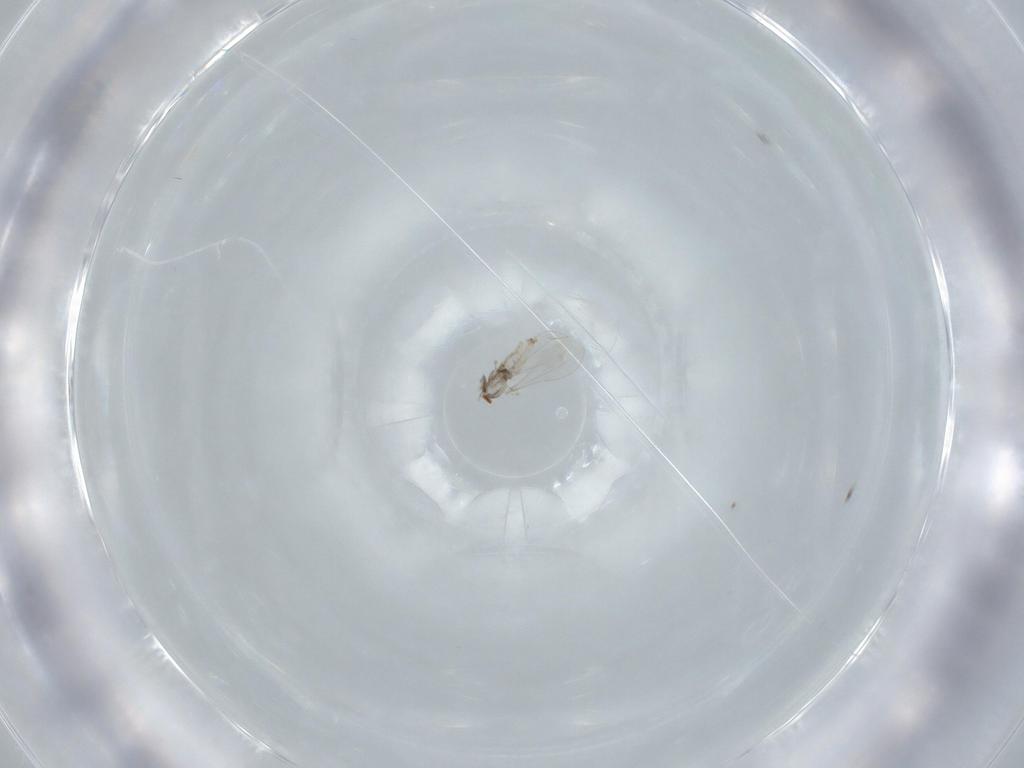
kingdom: Animalia
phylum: Arthropoda
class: Insecta
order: Diptera
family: Cecidomyiidae
